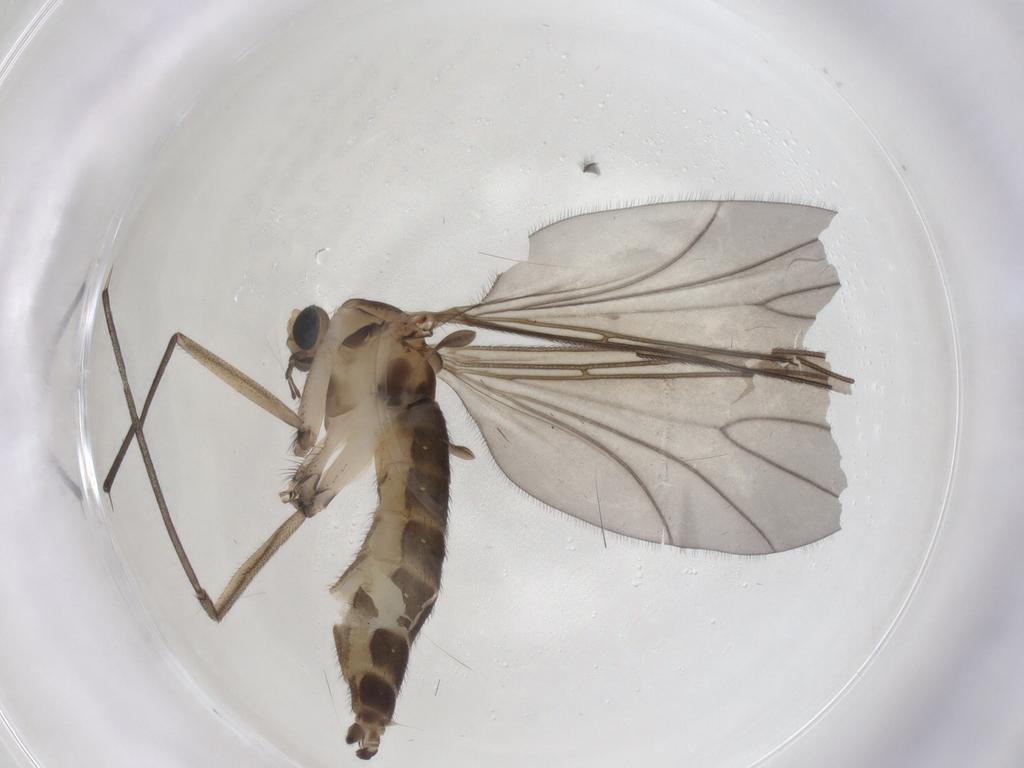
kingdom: Animalia
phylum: Arthropoda
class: Insecta
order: Diptera
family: Sciaridae
